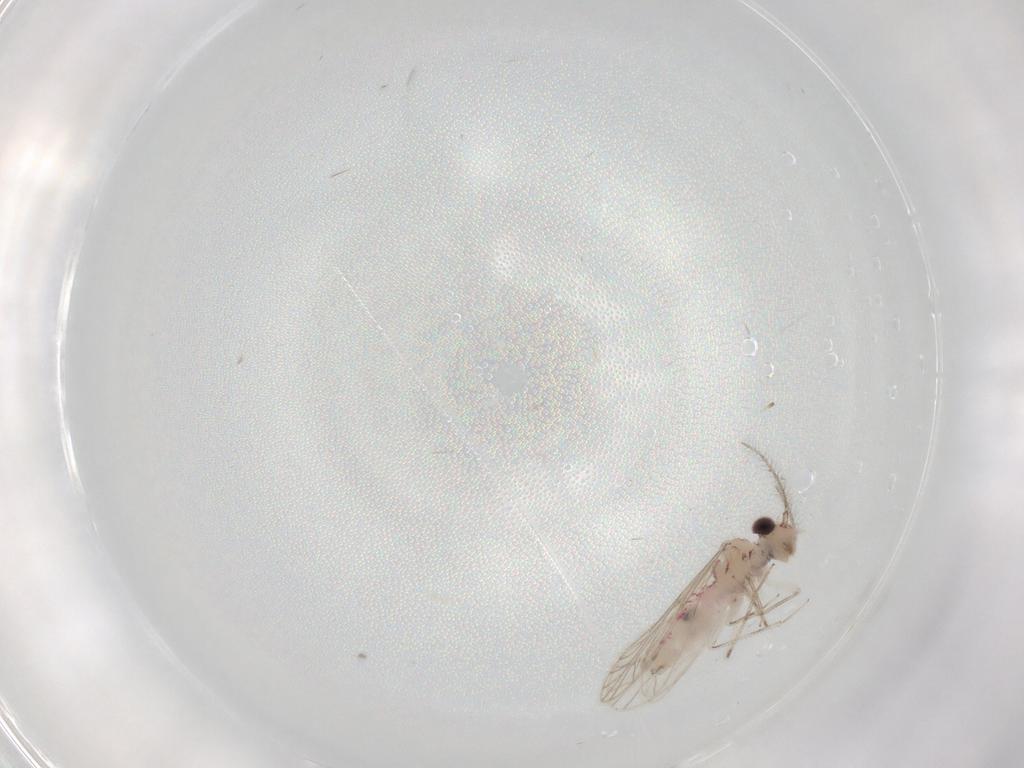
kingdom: Animalia
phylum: Arthropoda
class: Insecta
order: Psocodea
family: Caeciliusidae
